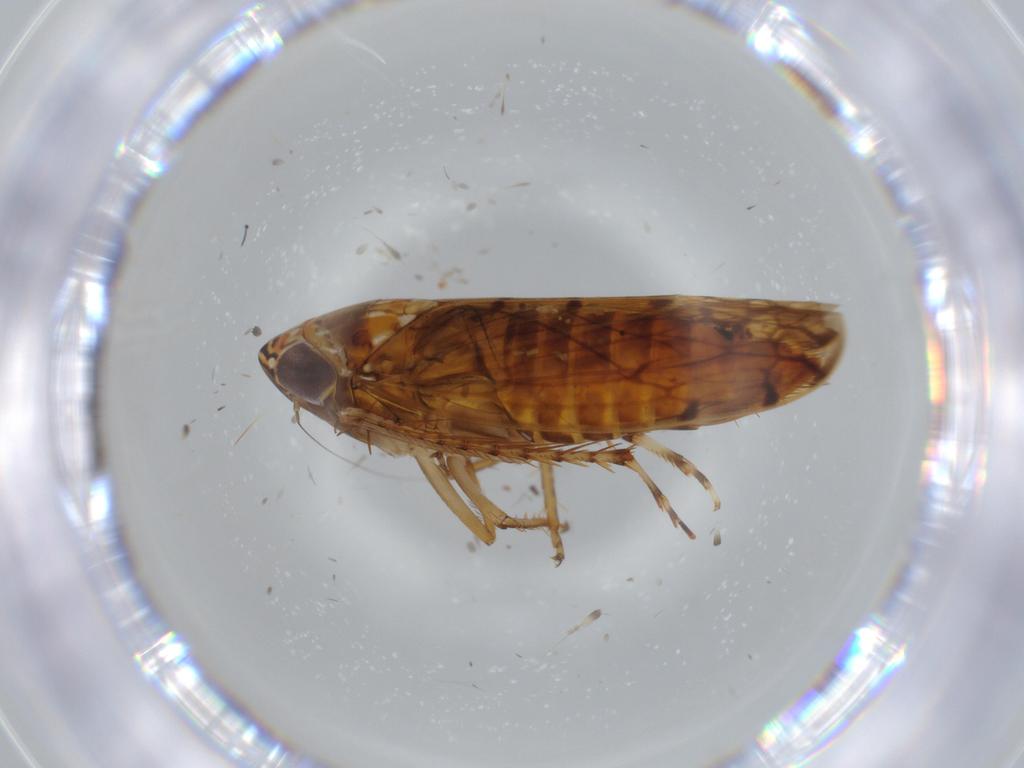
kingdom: Animalia
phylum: Arthropoda
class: Insecta
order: Hemiptera
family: Cicadellidae
